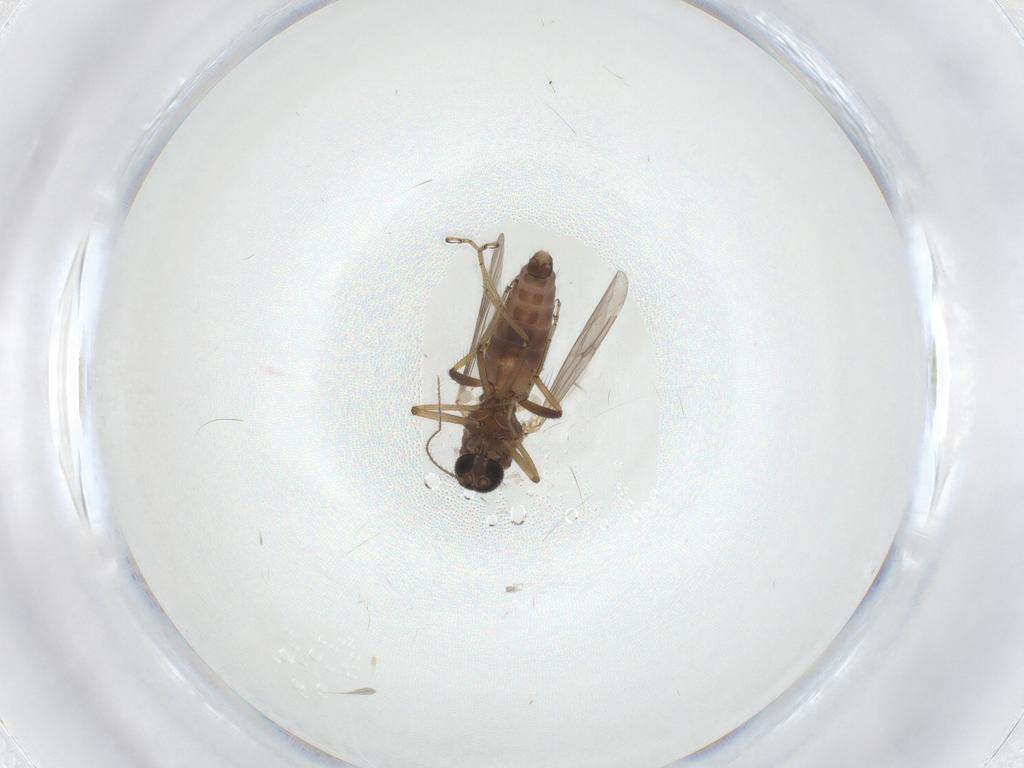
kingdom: Animalia
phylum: Arthropoda
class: Insecta
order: Diptera
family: Ceratopogonidae
